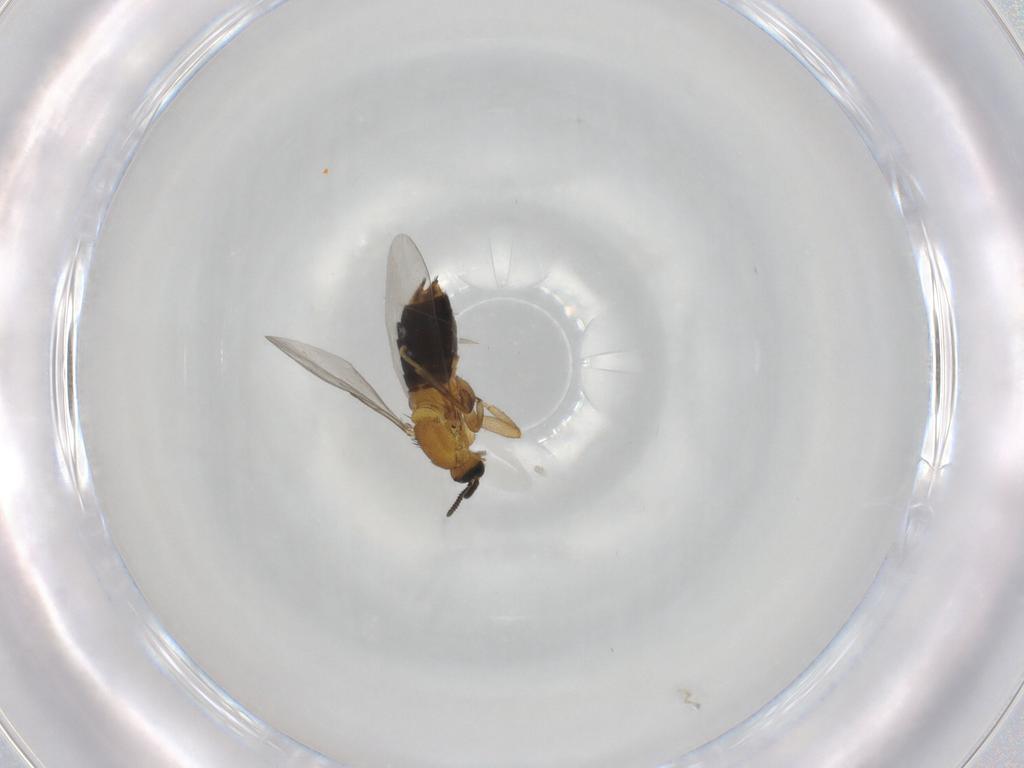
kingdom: Animalia
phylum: Arthropoda
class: Insecta
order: Diptera
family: Scatopsidae
